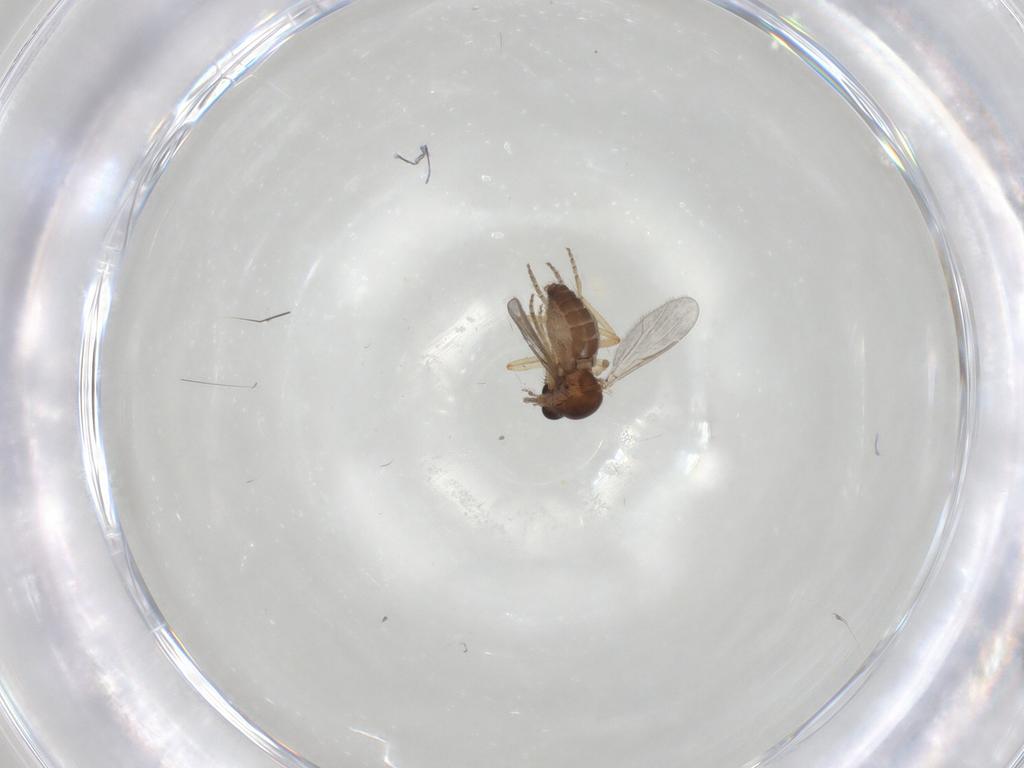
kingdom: Animalia
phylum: Arthropoda
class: Insecta
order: Diptera
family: Ceratopogonidae
